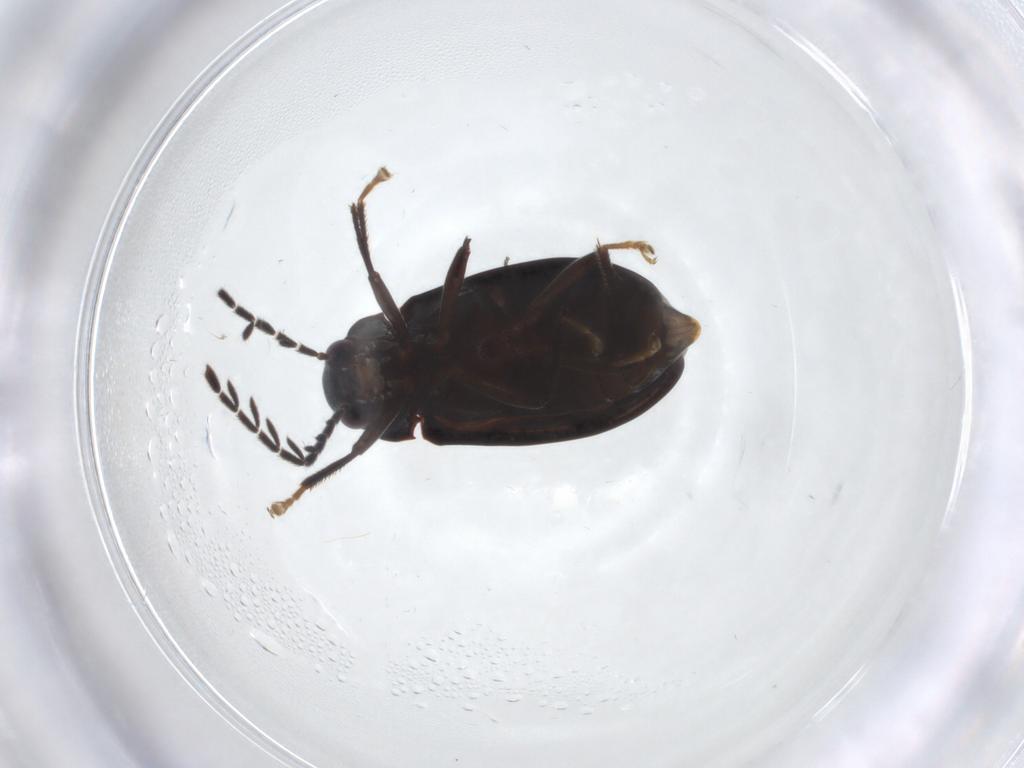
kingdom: Animalia
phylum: Arthropoda
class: Insecta
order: Coleoptera
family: Ptilodactylidae
